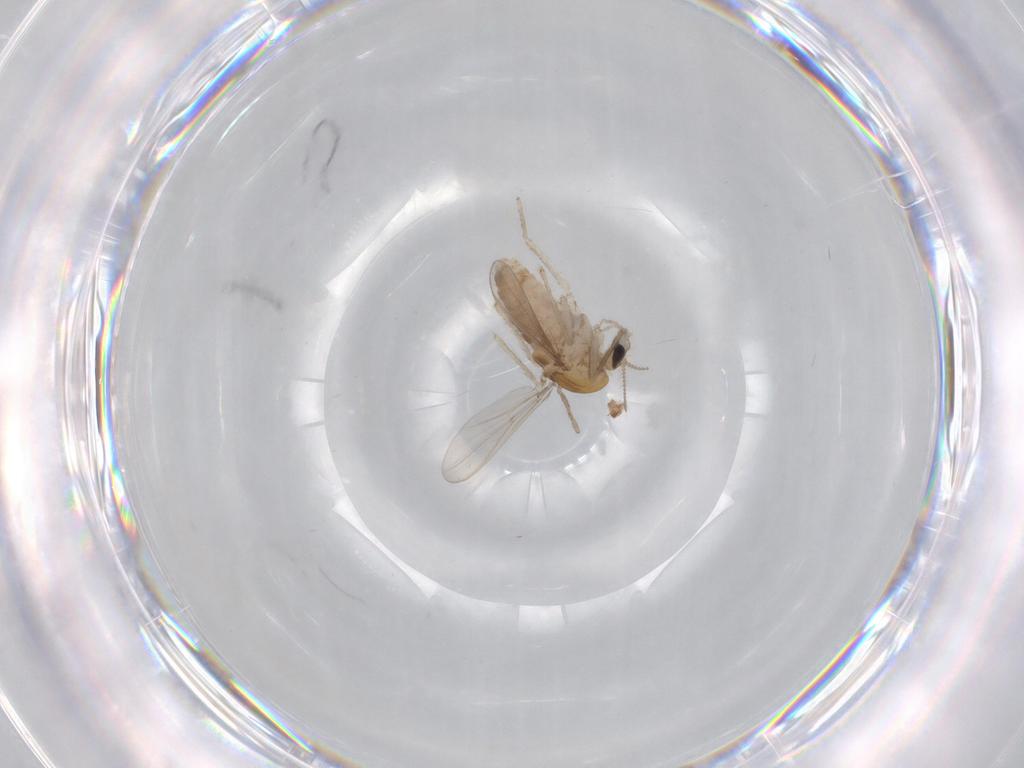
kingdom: Animalia
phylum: Arthropoda
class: Insecta
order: Diptera
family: Chironomidae
